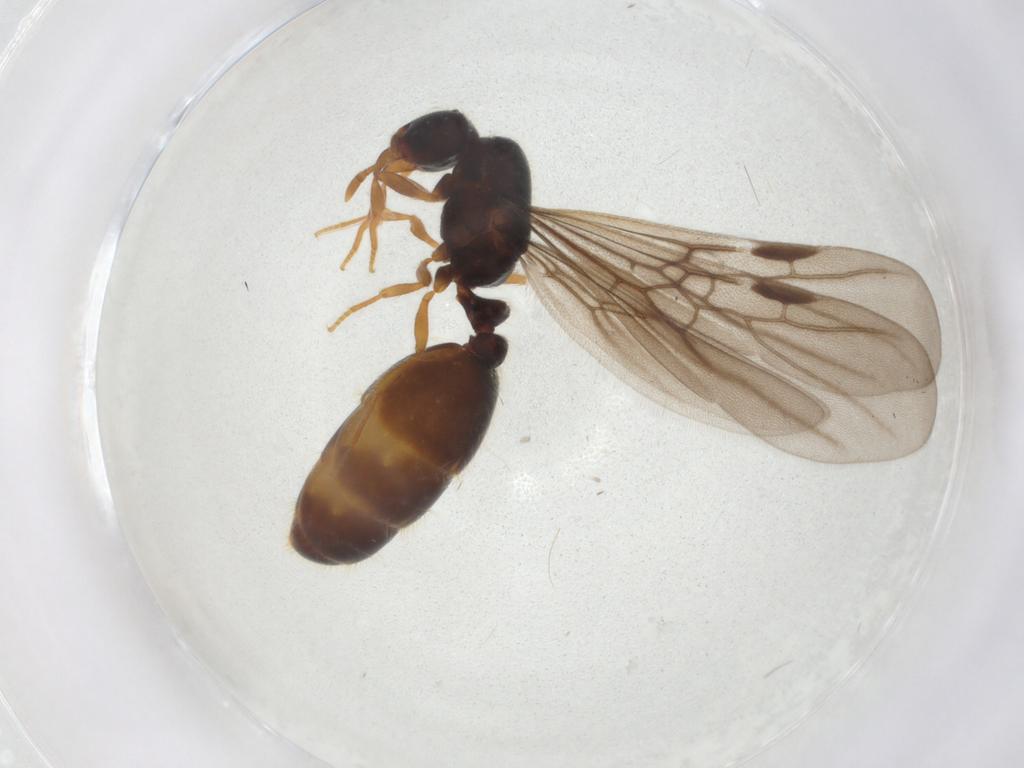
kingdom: Animalia
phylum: Arthropoda
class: Insecta
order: Hymenoptera
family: Formicidae
